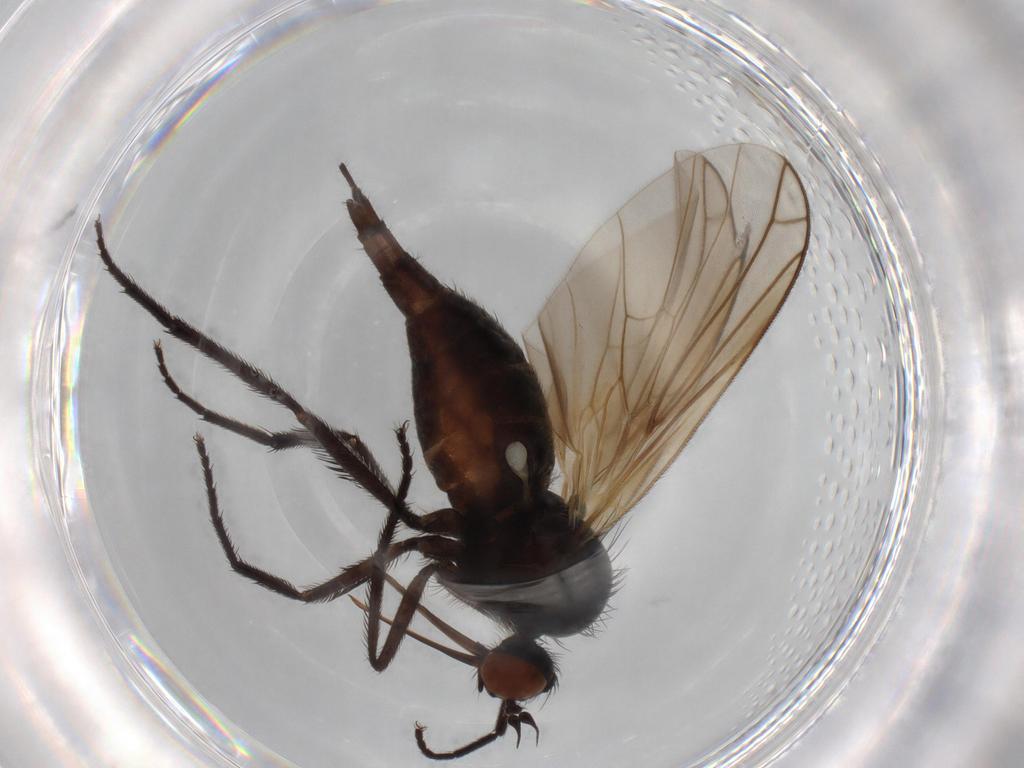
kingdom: Animalia
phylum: Arthropoda
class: Insecta
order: Diptera
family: Empididae
